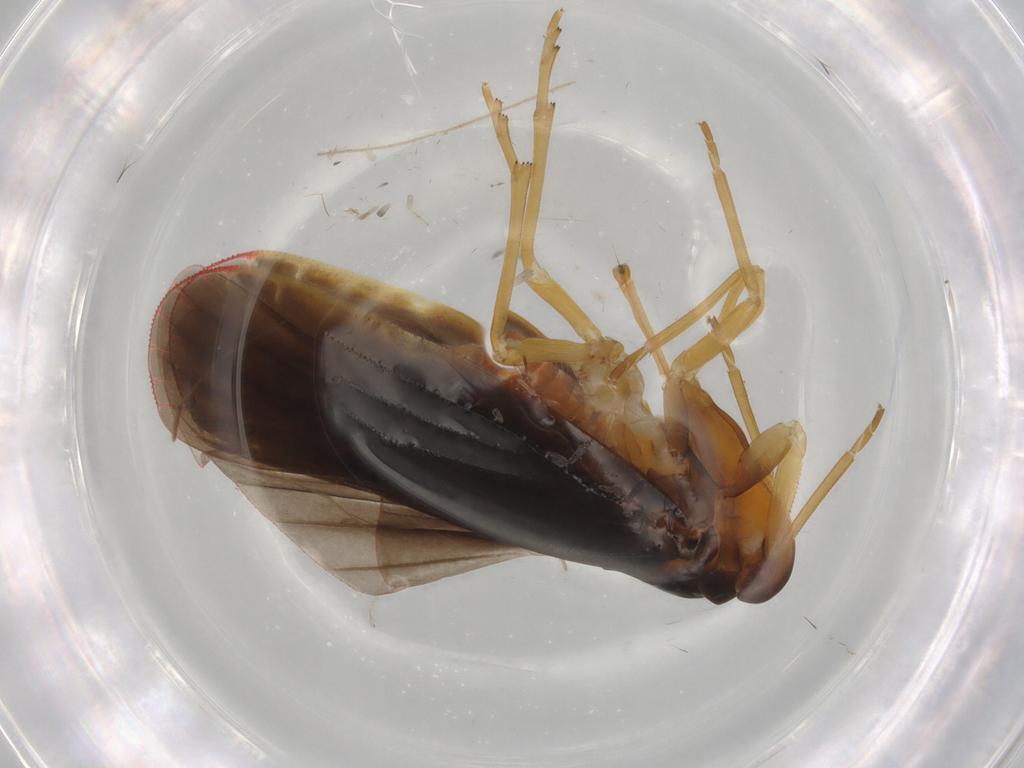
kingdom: Animalia
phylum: Arthropoda
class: Insecta
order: Hemiptera
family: Derbidae
